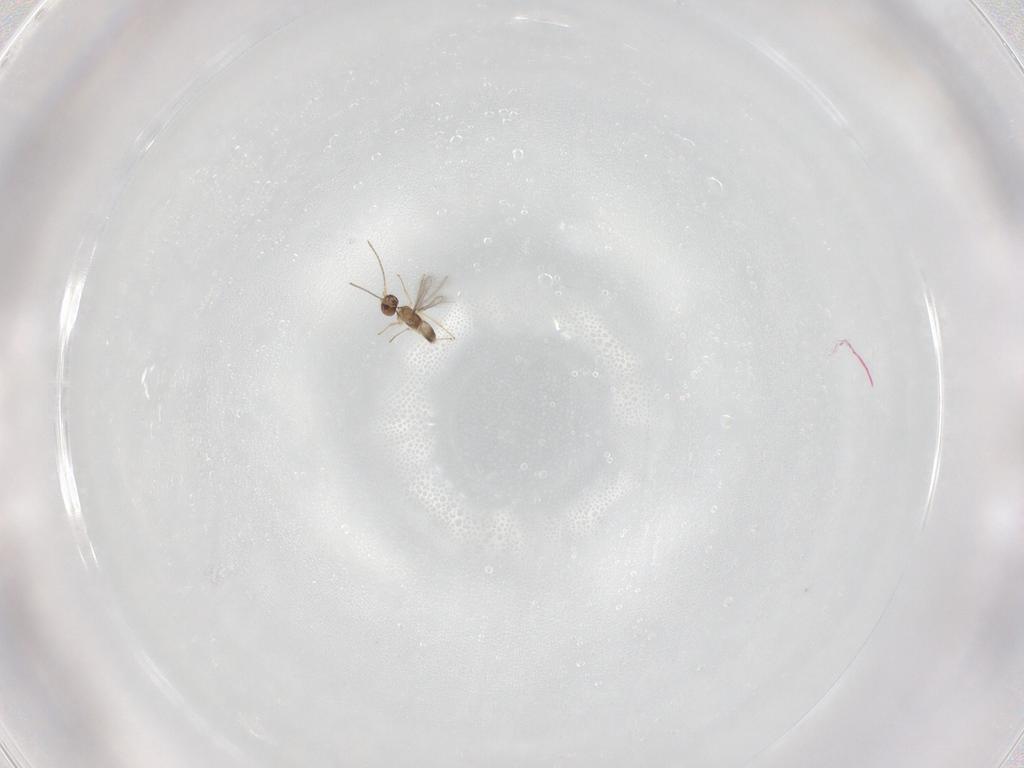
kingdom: Animalia
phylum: Arthropoda
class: Insecta
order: Hymenoptera
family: Mymaridae
